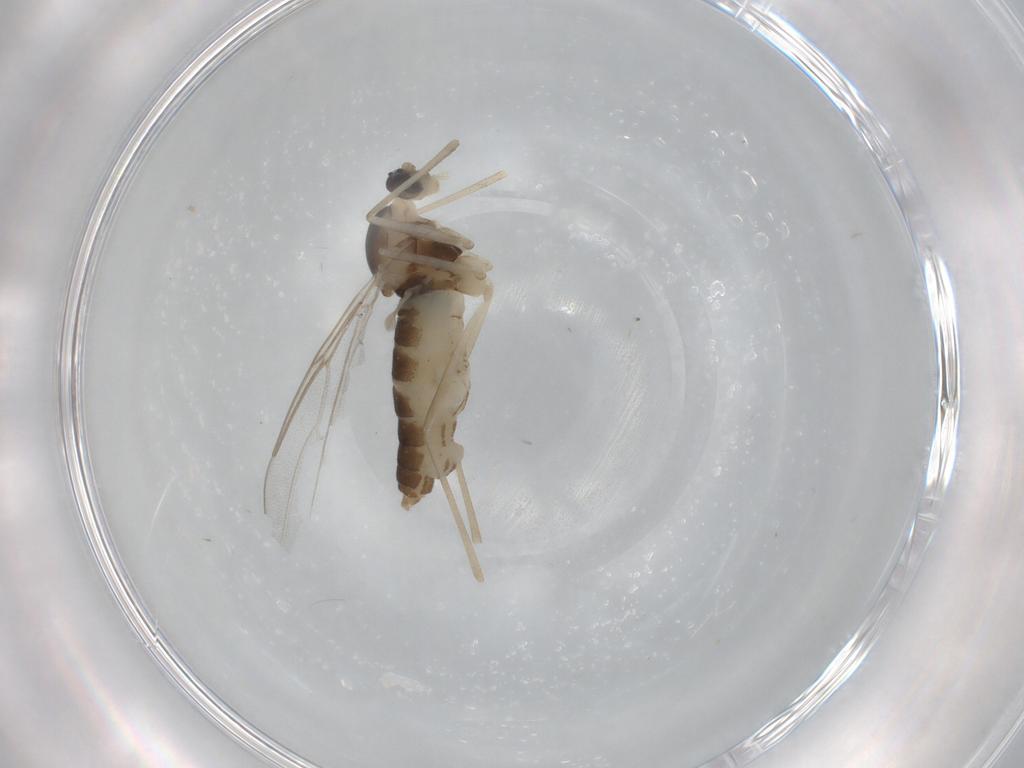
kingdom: Animalia
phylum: Arthropoda
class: Insecta
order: Diptera
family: Cecidomyiidae
